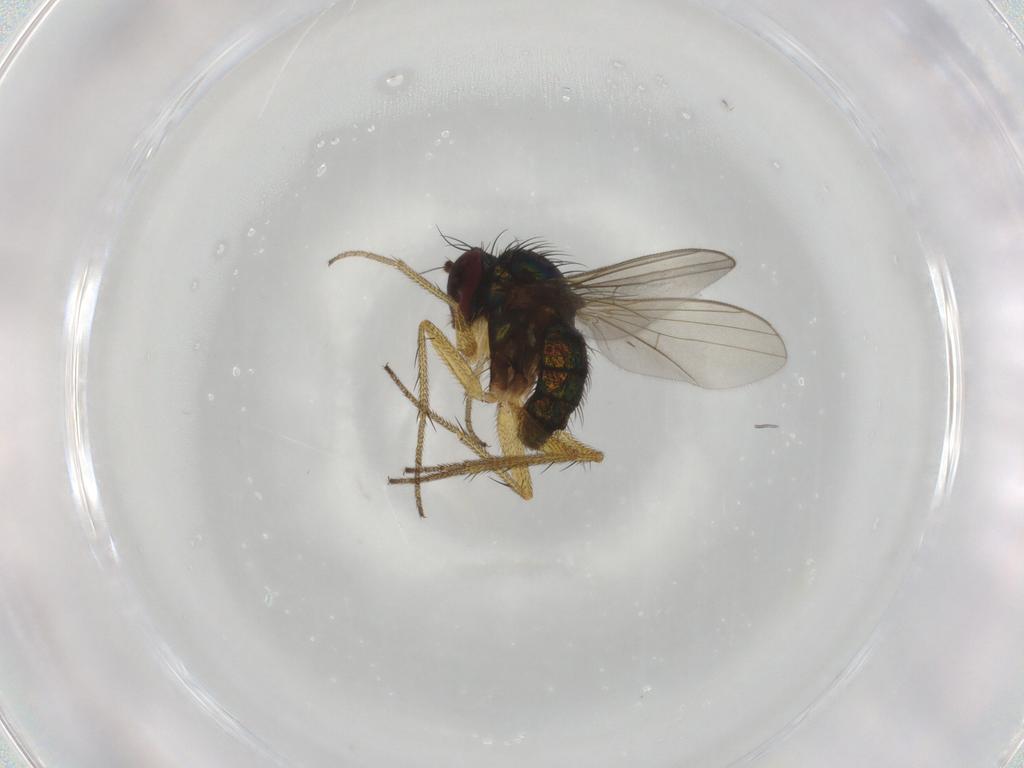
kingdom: Animalia
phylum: Arthropoda
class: Insecta
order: Diptera
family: Dolichopodidae
